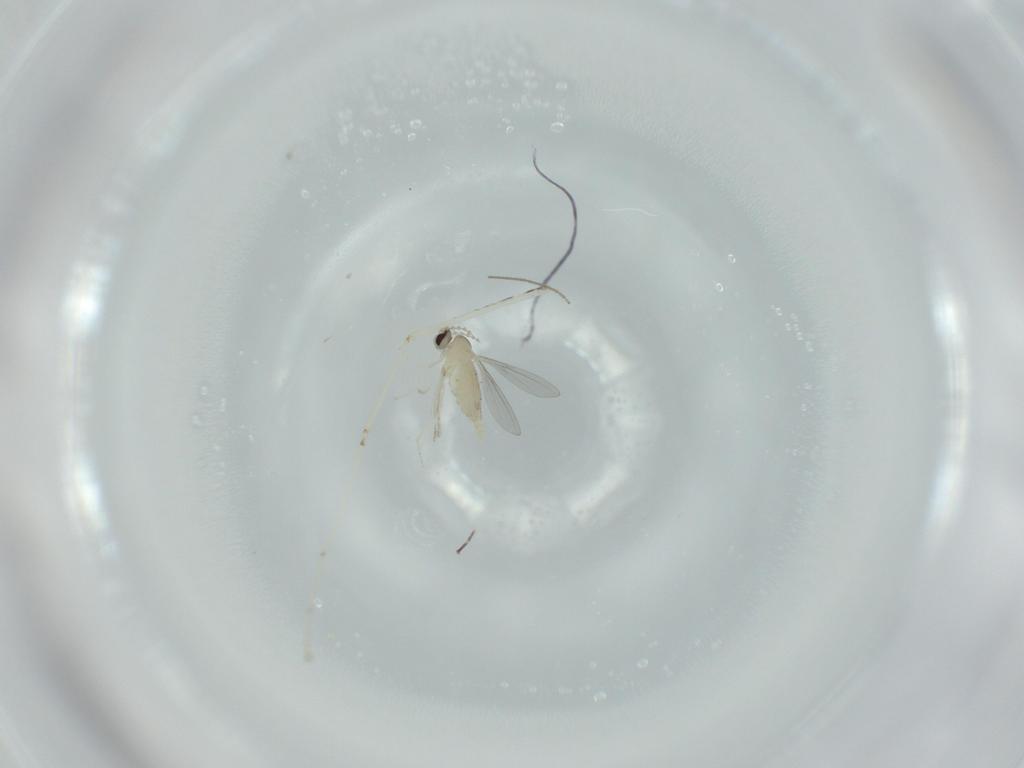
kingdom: Animalia
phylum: Arthropoda
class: Insecta
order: Diptera
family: Cecidomyiidae
